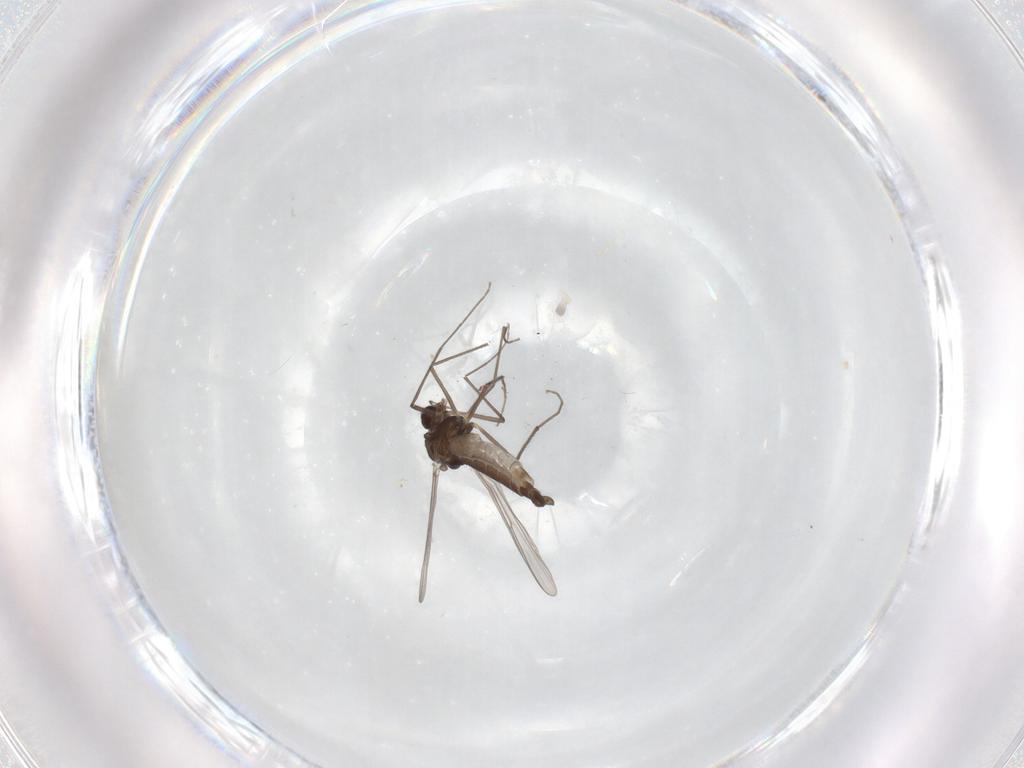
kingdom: Animalia
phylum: Arthropoda
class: Insecta
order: Diptera
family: Chironomidae
